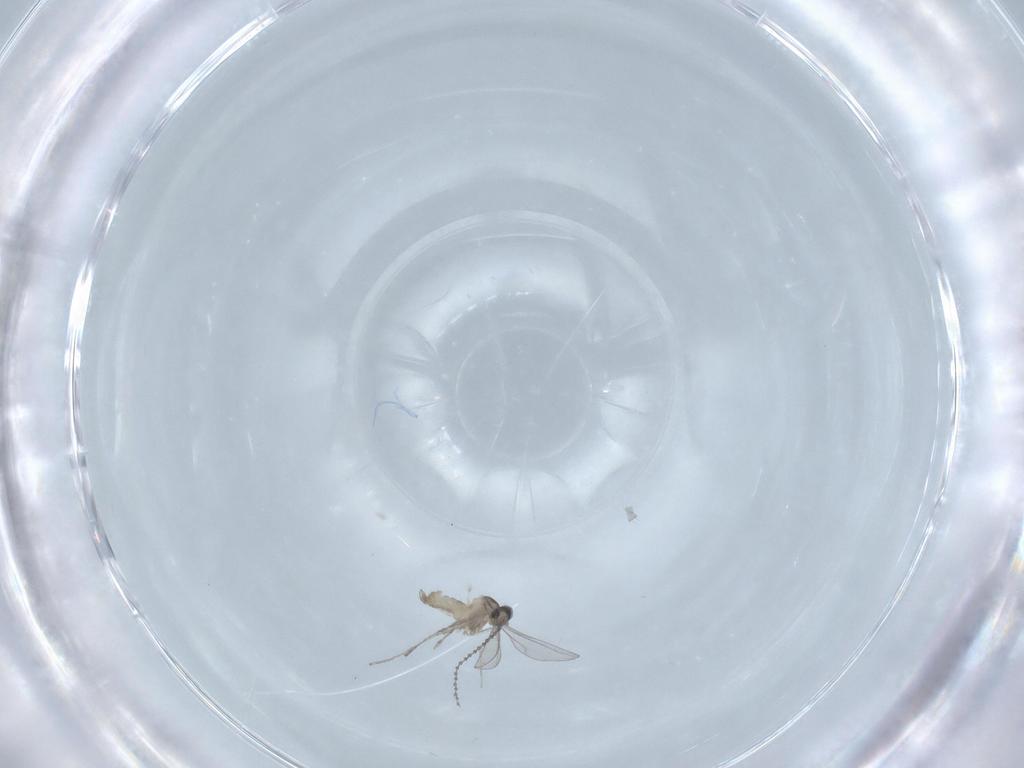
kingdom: Animalia
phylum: Arthropoda
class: Insecta
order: Diptera
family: Cecidomyiidae
